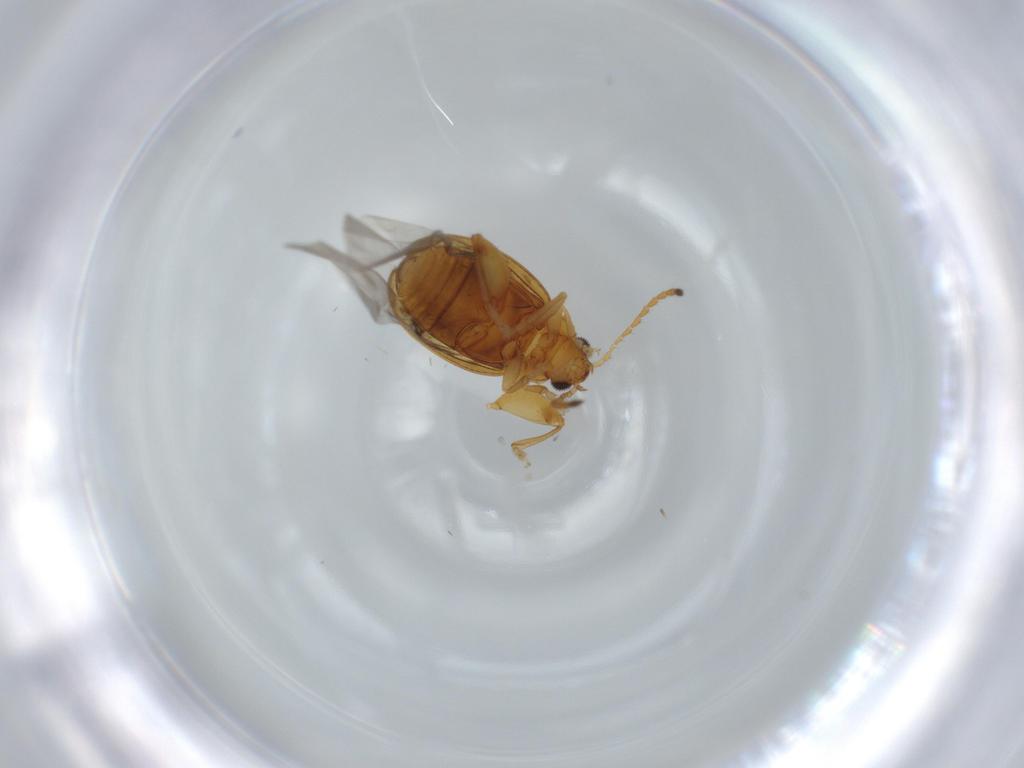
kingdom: Animalia
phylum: Arthropoda
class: Insecta
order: Coleoptera
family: Chrysomelidae
